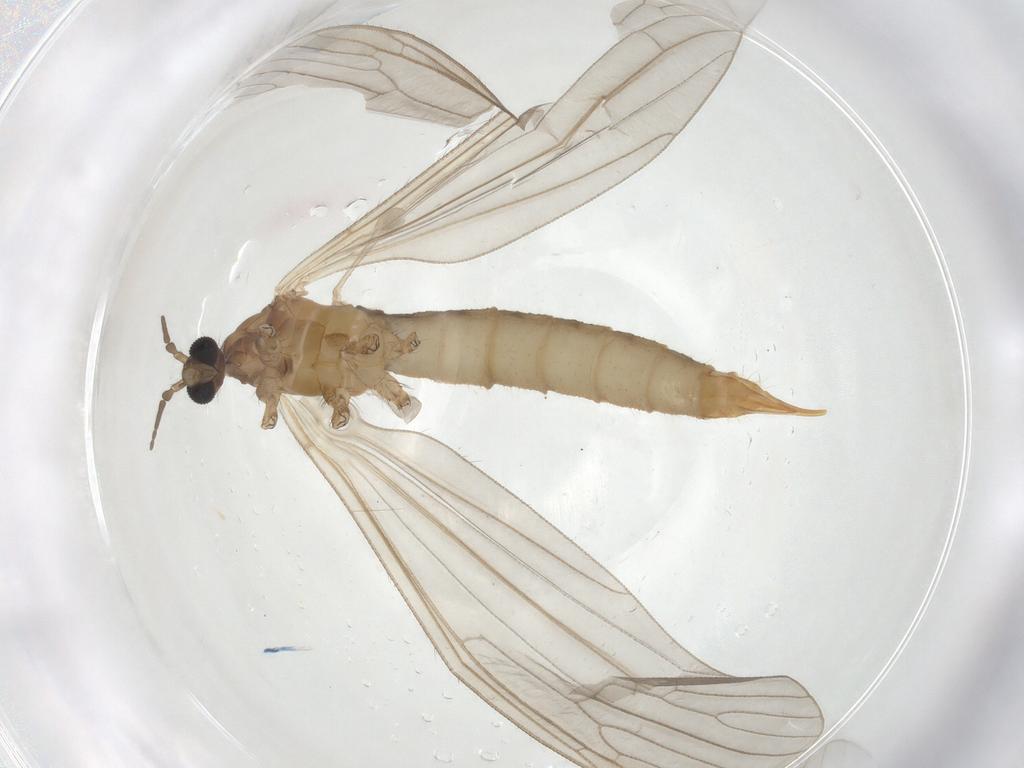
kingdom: Animalia
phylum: Arthropoda
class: Insecta
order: Diptera
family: Limoniidae
